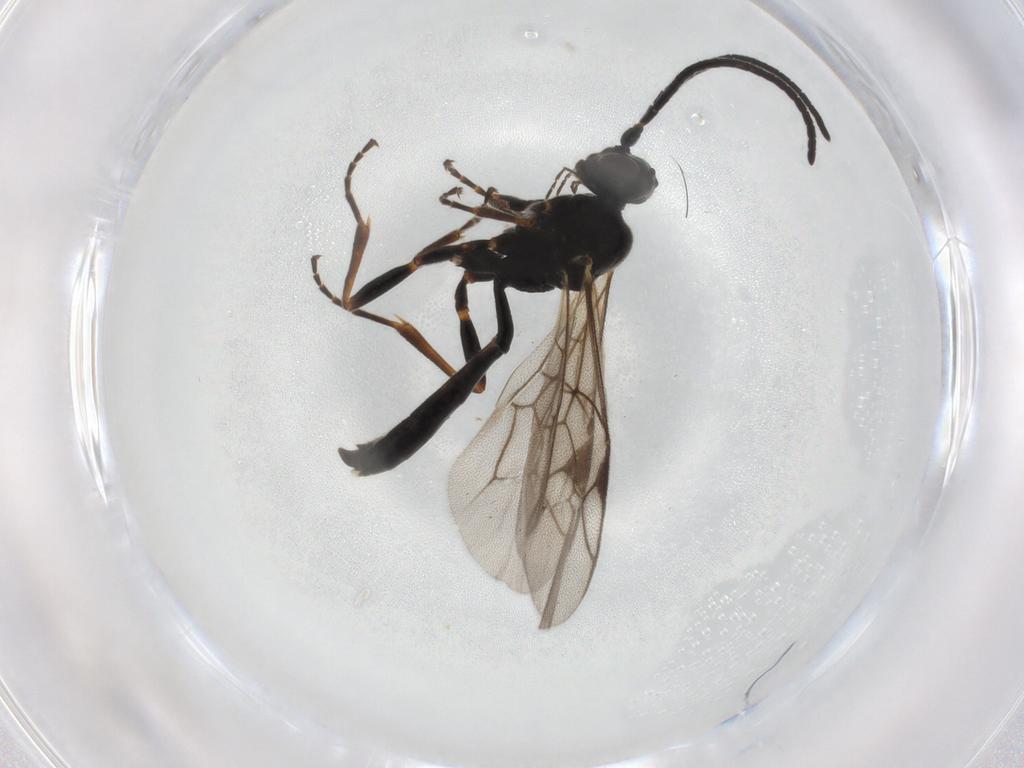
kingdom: Animalia
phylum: Arthropoda
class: Insecta
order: Hymenoptera
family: Ichneumonidae
